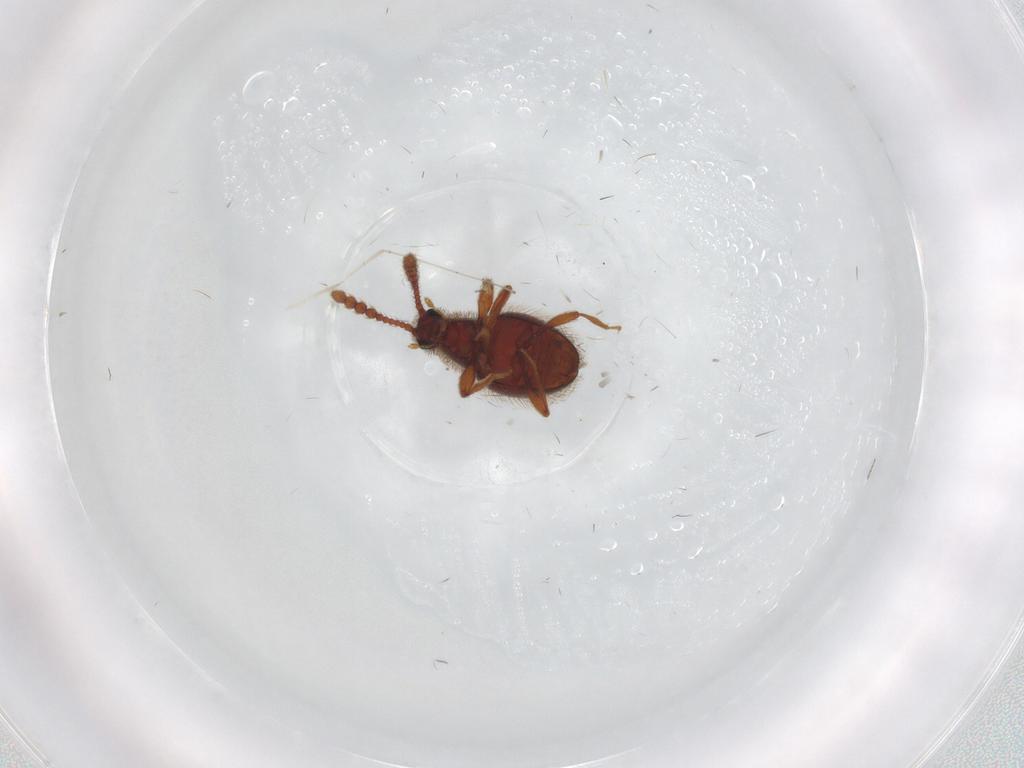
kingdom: Animalia
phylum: Arthropoda
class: Insecta
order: Coleoptera
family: Staphylinidae
